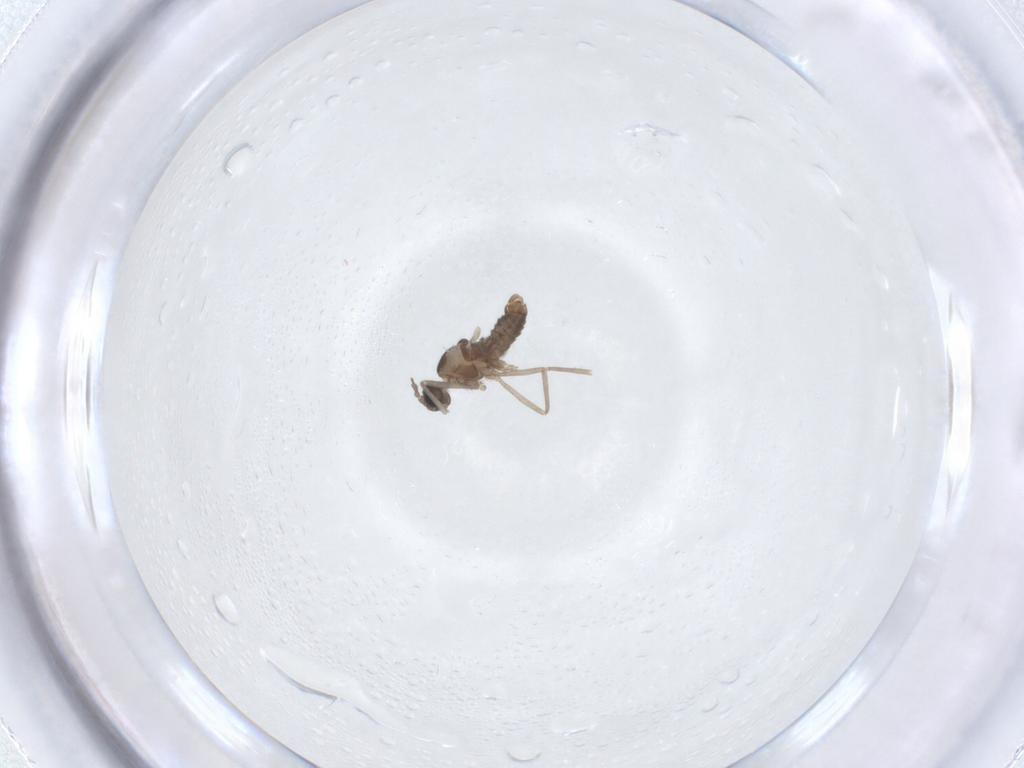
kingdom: Animalia
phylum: Arthropoda
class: Insecta
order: Diptera
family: Cecidomyiidae
